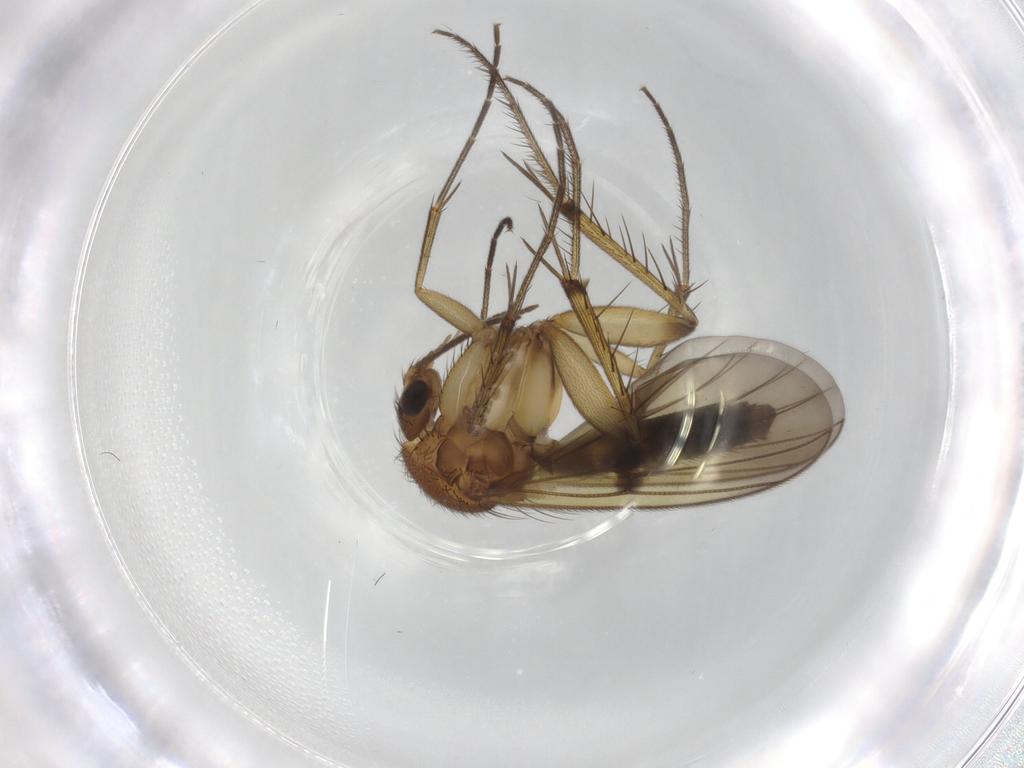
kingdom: Animalia
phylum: Arthropoda
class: Insecta
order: Diptera
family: Mycetophilidae
